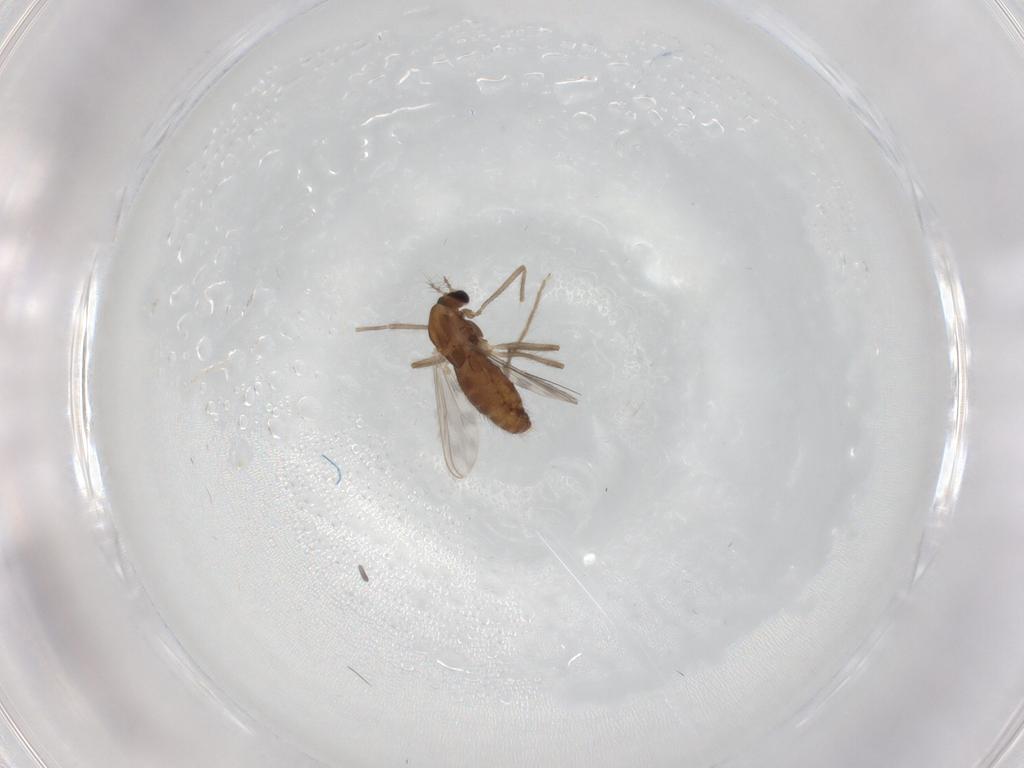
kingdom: Animalia
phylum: Arthropoda
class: Insecta
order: Diptera
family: Chironomidae
